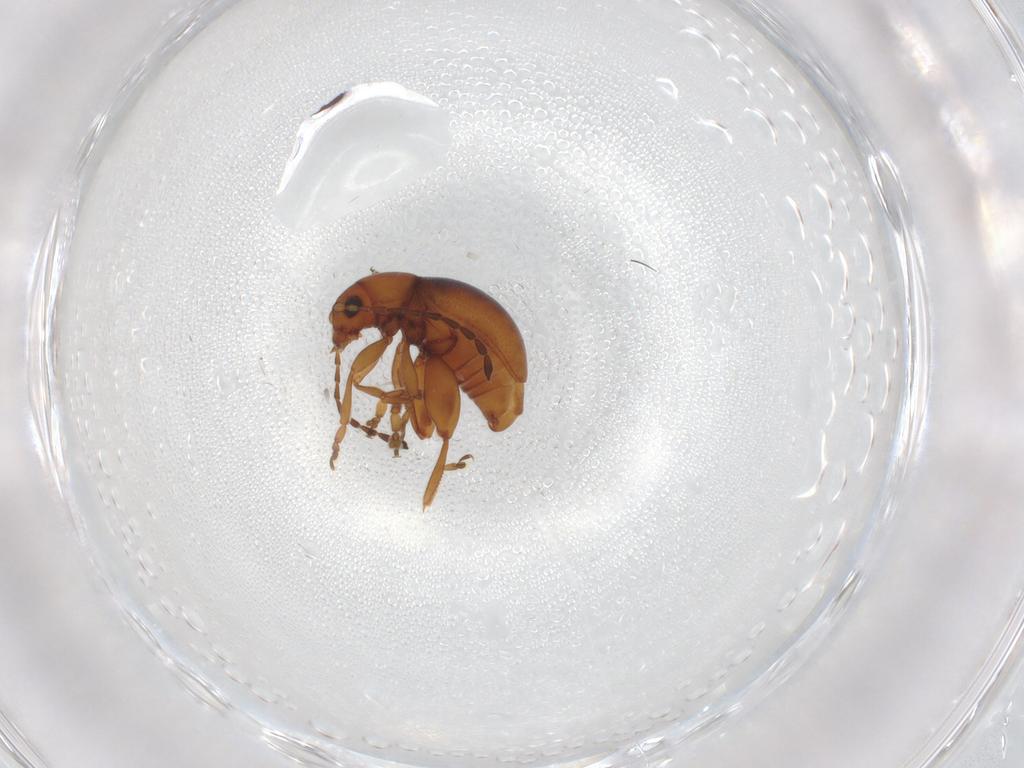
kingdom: Animalia
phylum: Arthropoda
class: Insecta
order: Coleoptera
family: Chrysomelidae
